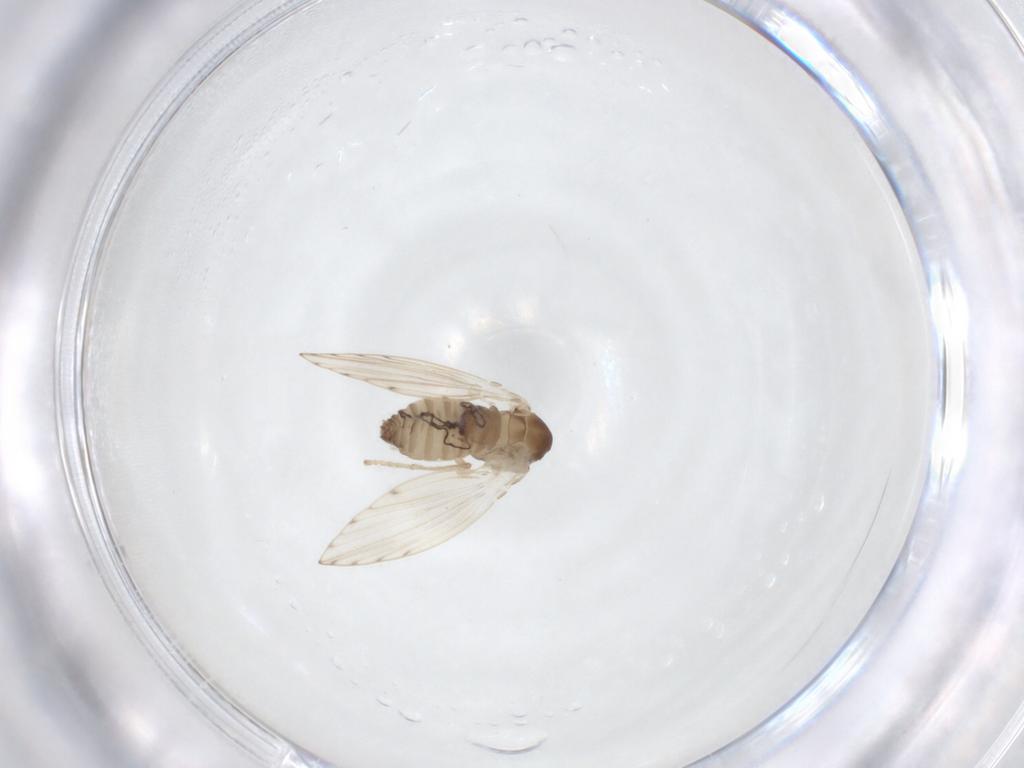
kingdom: Animalia
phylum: Arthropoda
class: Insecta
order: Diptera
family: Psychodidae
